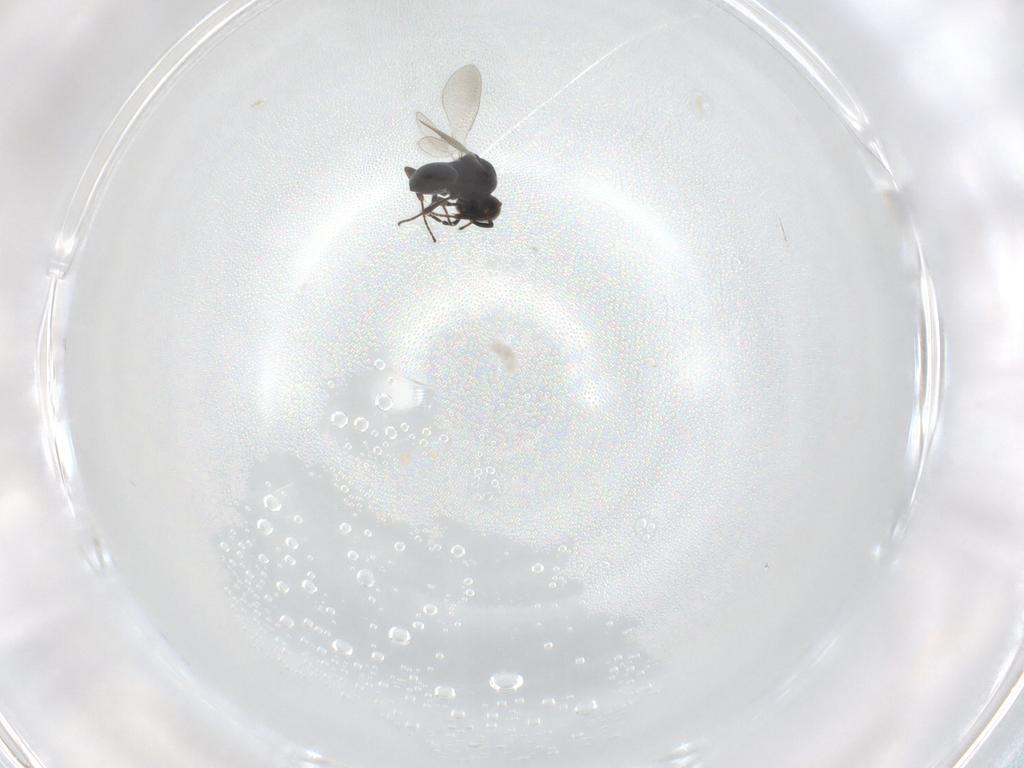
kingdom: Animalia
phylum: Arthropoda
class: Insecta
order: Hymenoptera
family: Platygastridae
